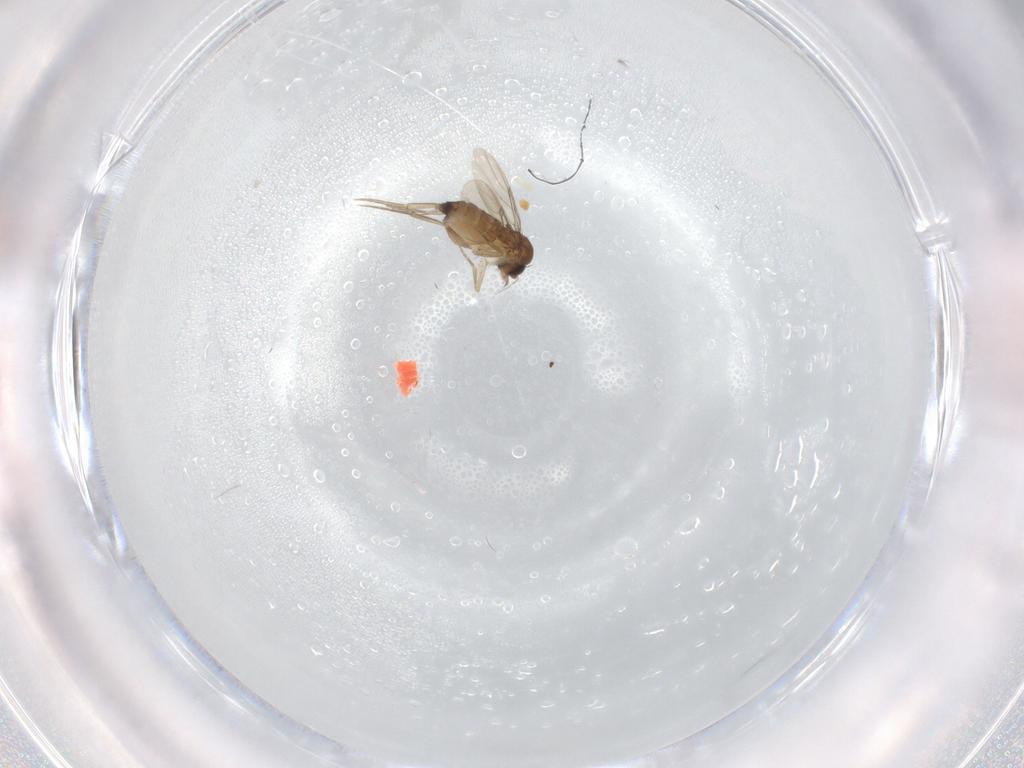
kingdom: Animalia
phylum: Arthropoda
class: Insecta
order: Diptera
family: Phoridae
